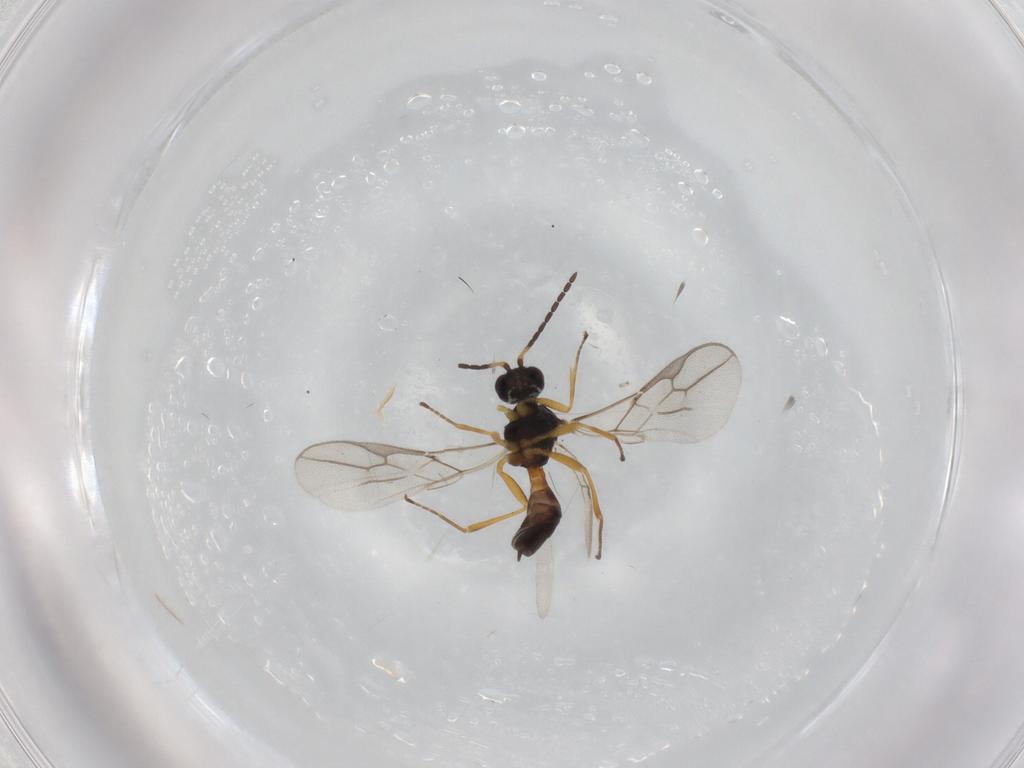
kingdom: Animalia
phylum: Arthropoda
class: Insecta
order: Hymenoptera
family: Braconidae
